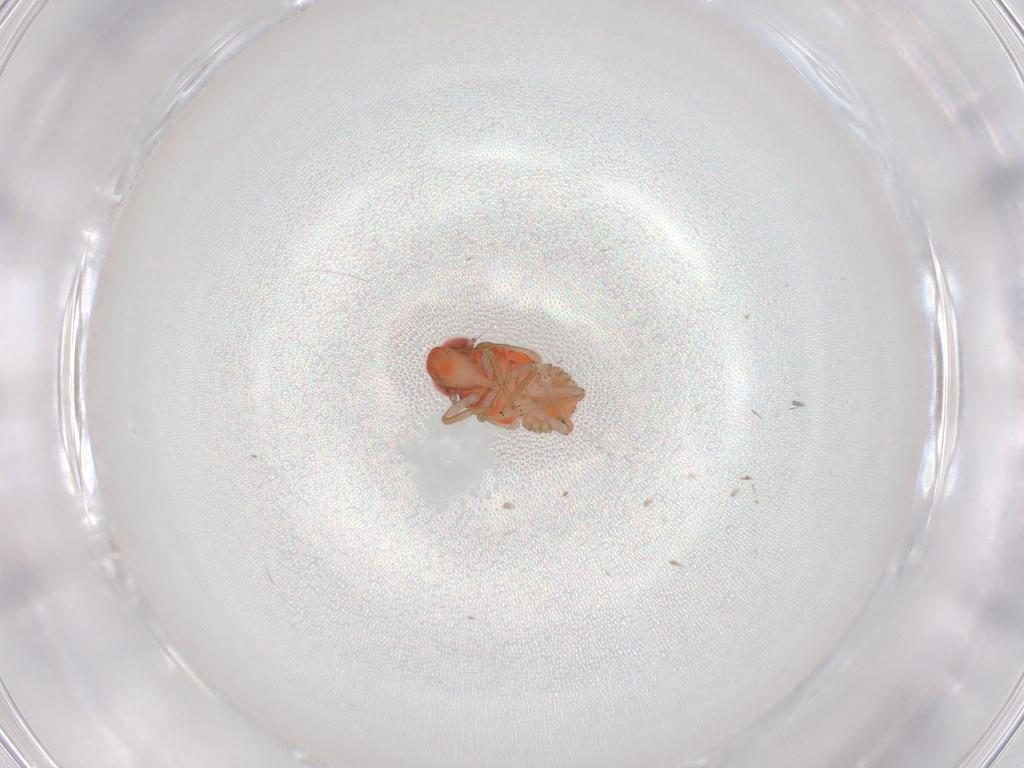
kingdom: Animalia
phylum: Arthropoda
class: Insecta
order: Hemiptera
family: Issidae
